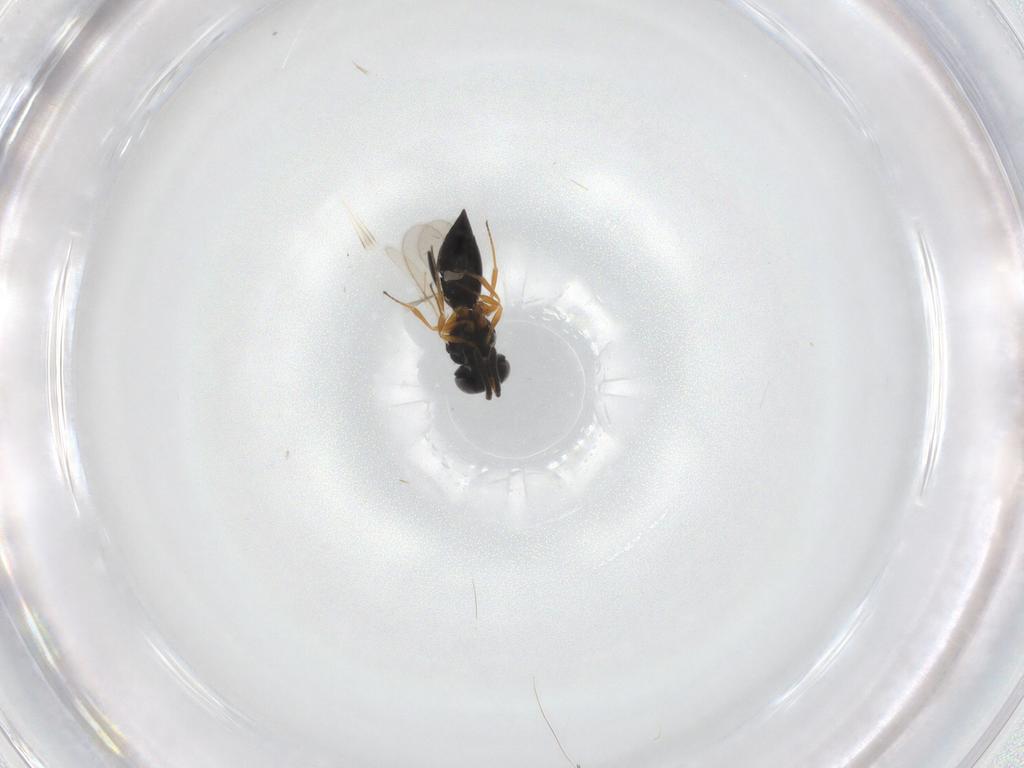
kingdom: Animalia
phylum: Arthropoda
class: Insecta
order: Hymenoptera
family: Scelionidae
